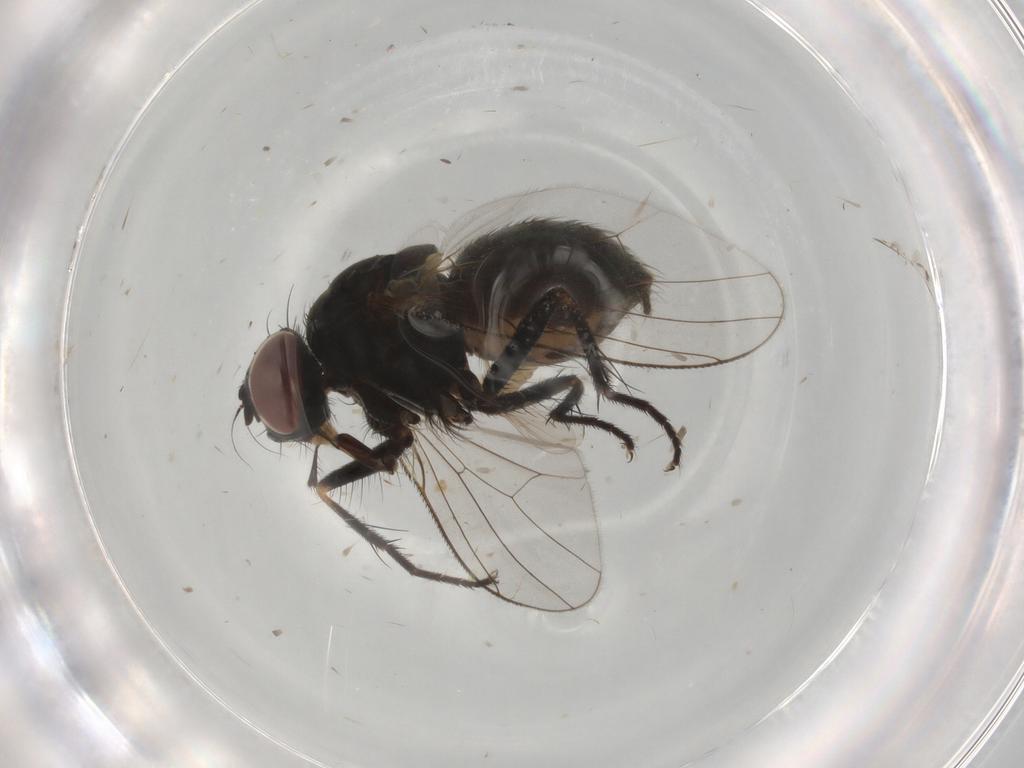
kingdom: Animalia
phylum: Arthropoda
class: Insecta
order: Diptera
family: Muscidae
